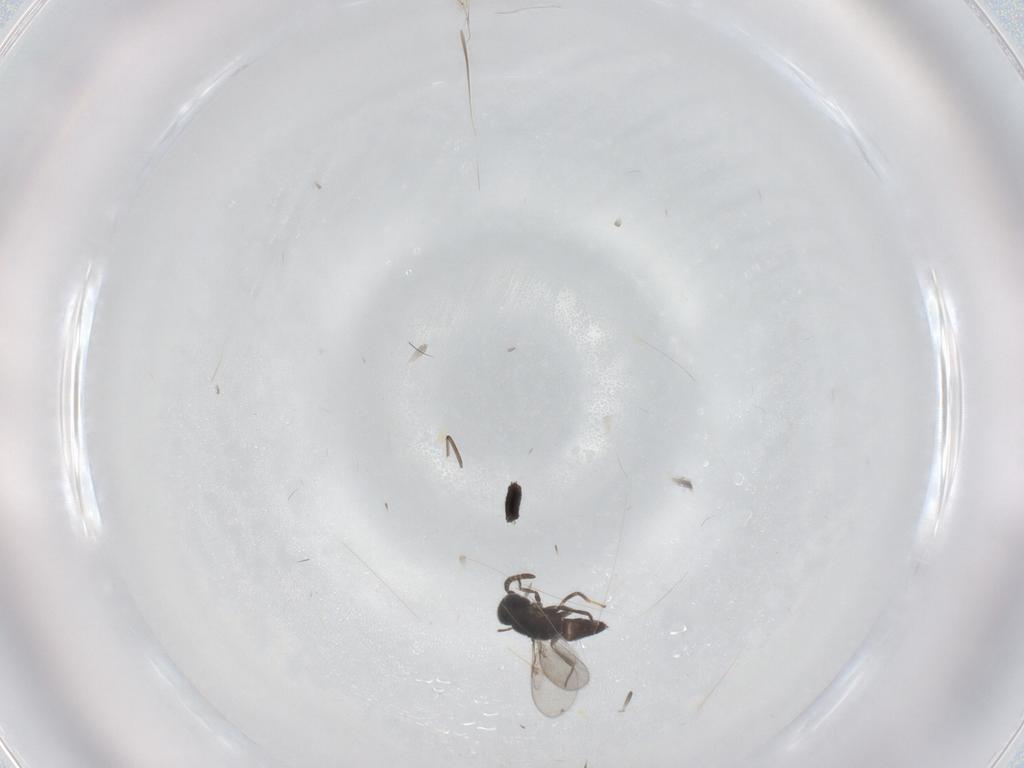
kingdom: Animalia
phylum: Arthropoda
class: Insecta
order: Diptera
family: Ceratopogonidae
